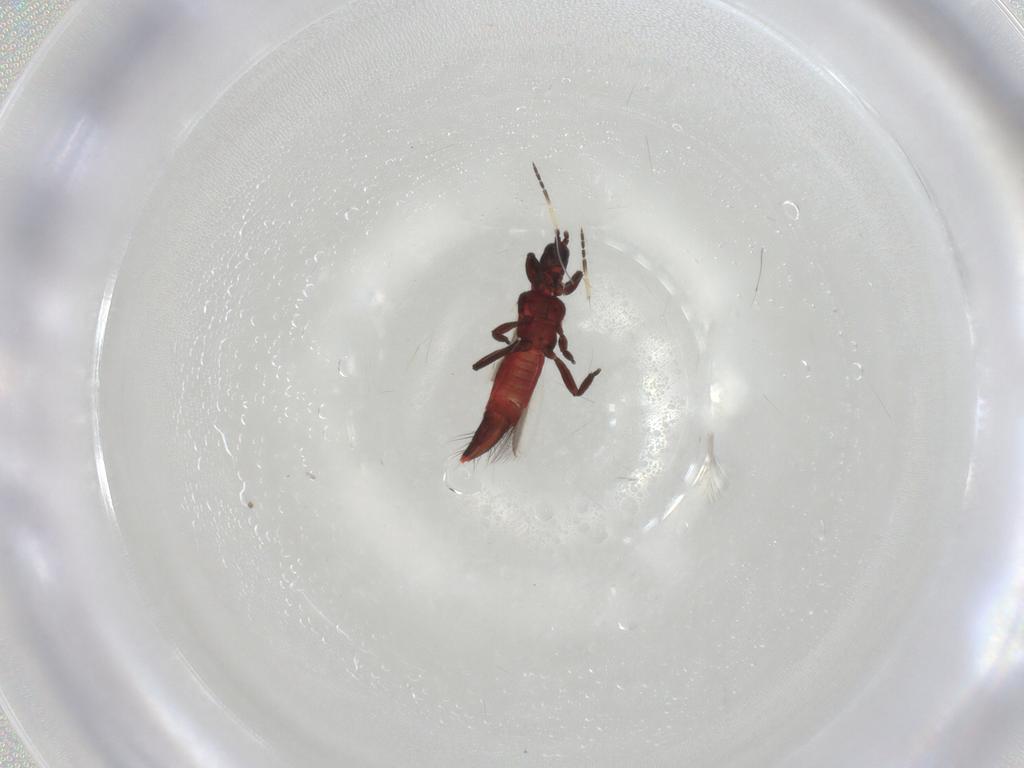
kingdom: Animalia
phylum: Arthropoda
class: Insecta
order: Thysanoptera
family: Aeolothripidae
